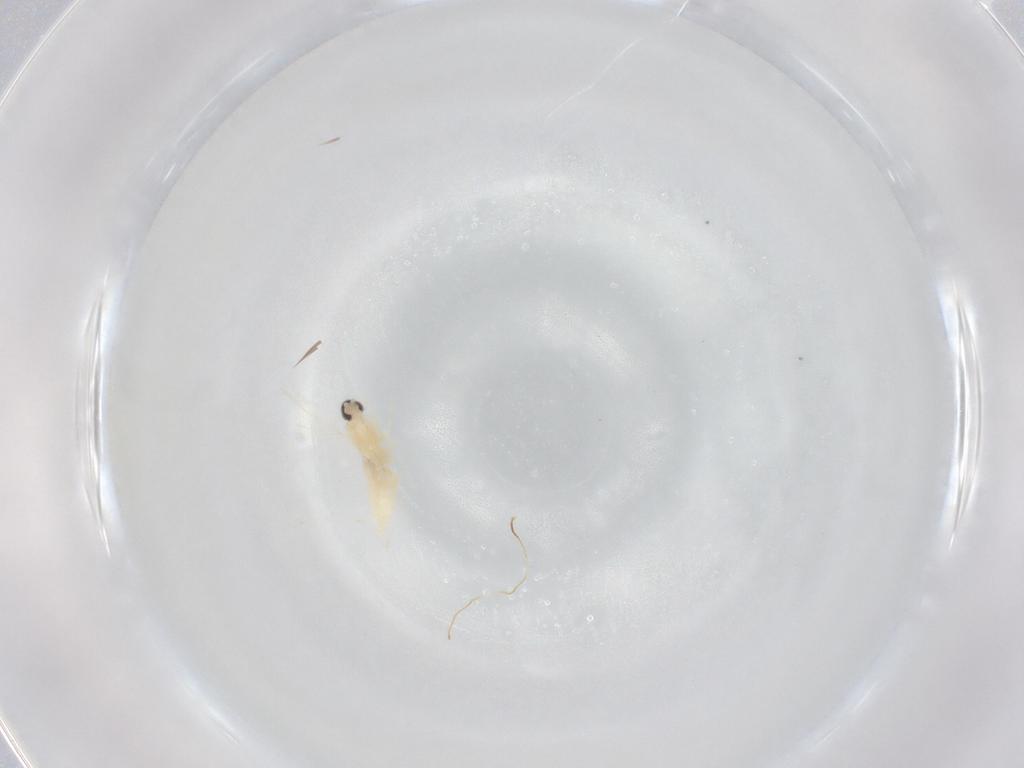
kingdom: Animalia
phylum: Arthropoda
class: Insecta
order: Diptera
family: Cecidomyiidae
